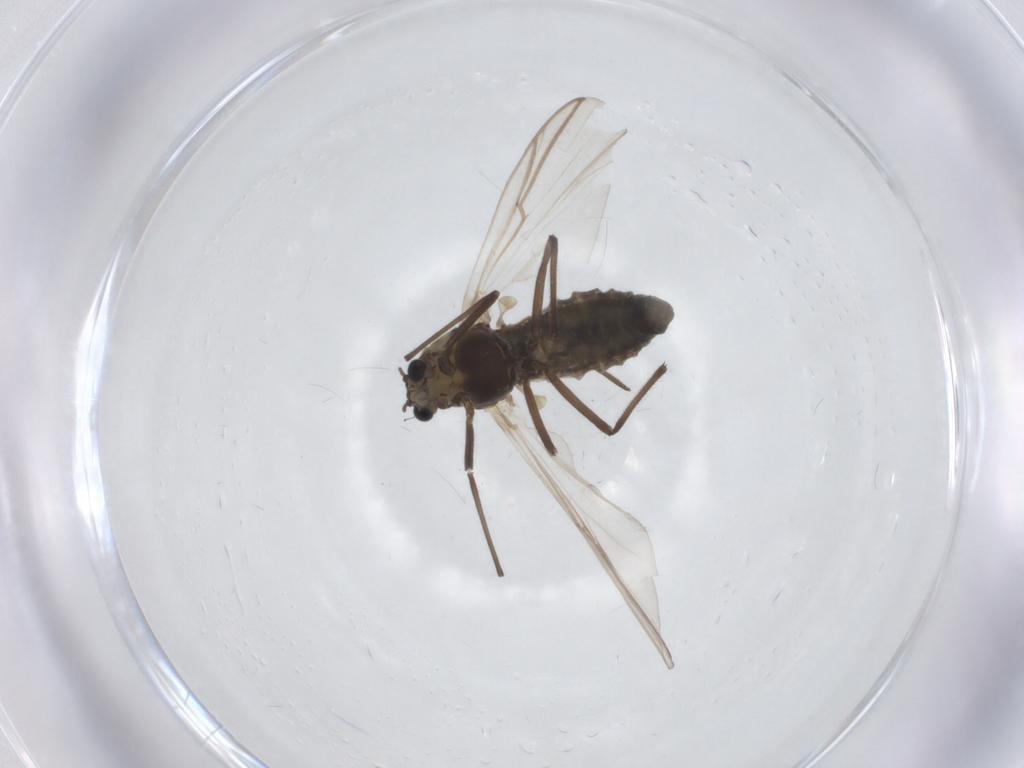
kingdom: Animalia
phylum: Arthropoda
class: Insecta
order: Diptera
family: Chironomidae
